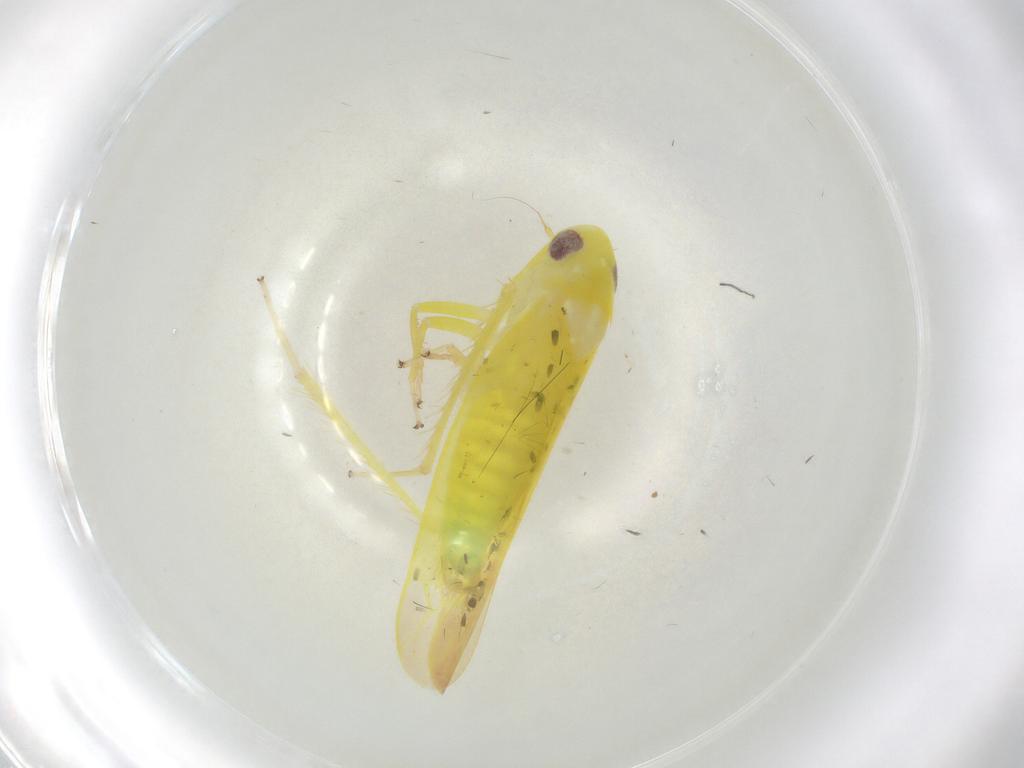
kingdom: Animalia
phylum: Arthropoda
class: Insecta
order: Hemiptera
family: Cicadellidae
